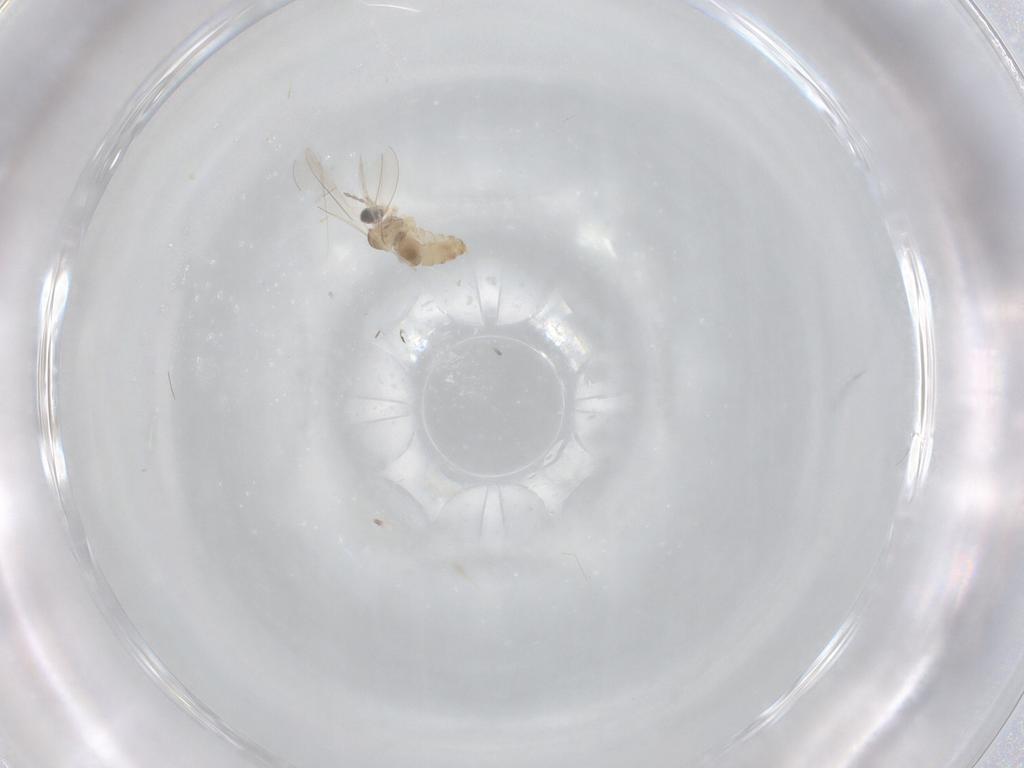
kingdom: Animalia
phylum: Arthropoda
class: Insecta
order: Diptera
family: Cecidomyiidae
